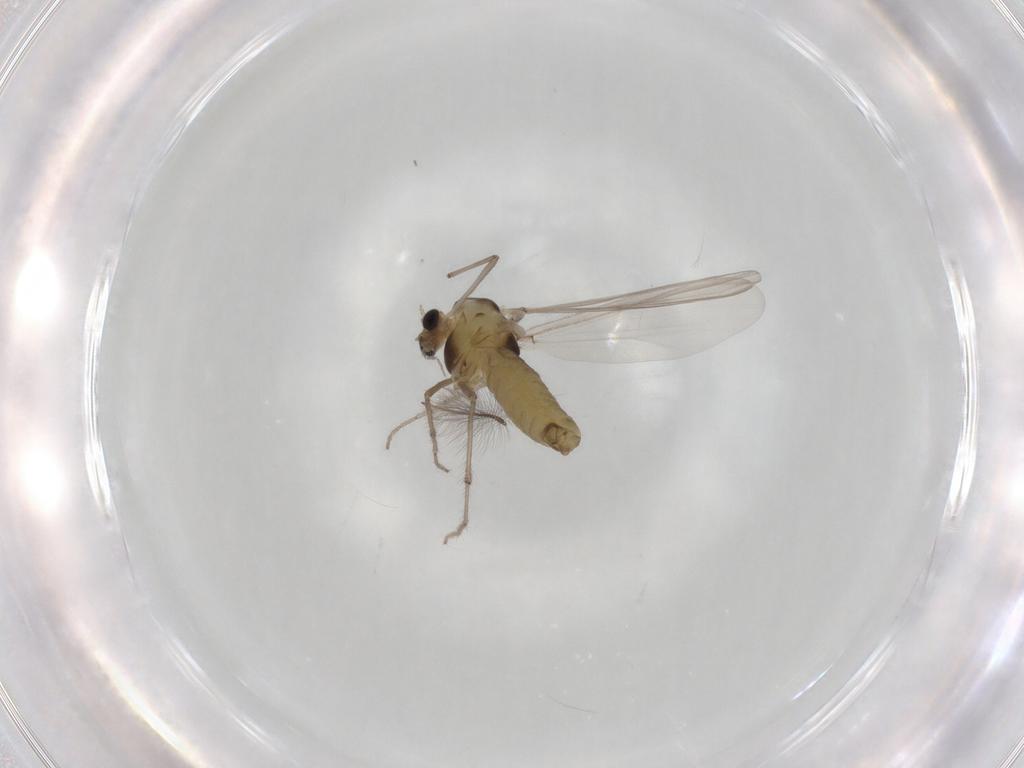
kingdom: Animalia
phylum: Arthropoda
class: Insecta
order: Diptera
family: Chironomidae
